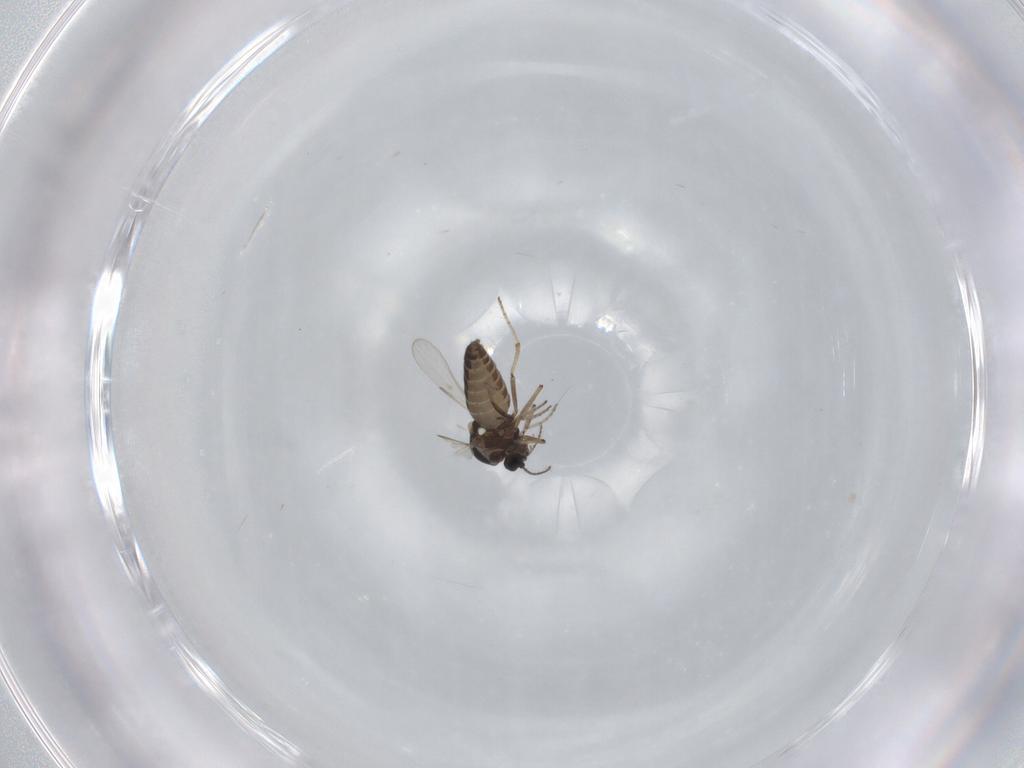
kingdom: Animalia
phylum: Arthropoda
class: Insecta
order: Diptera
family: Ceratopogonidae
